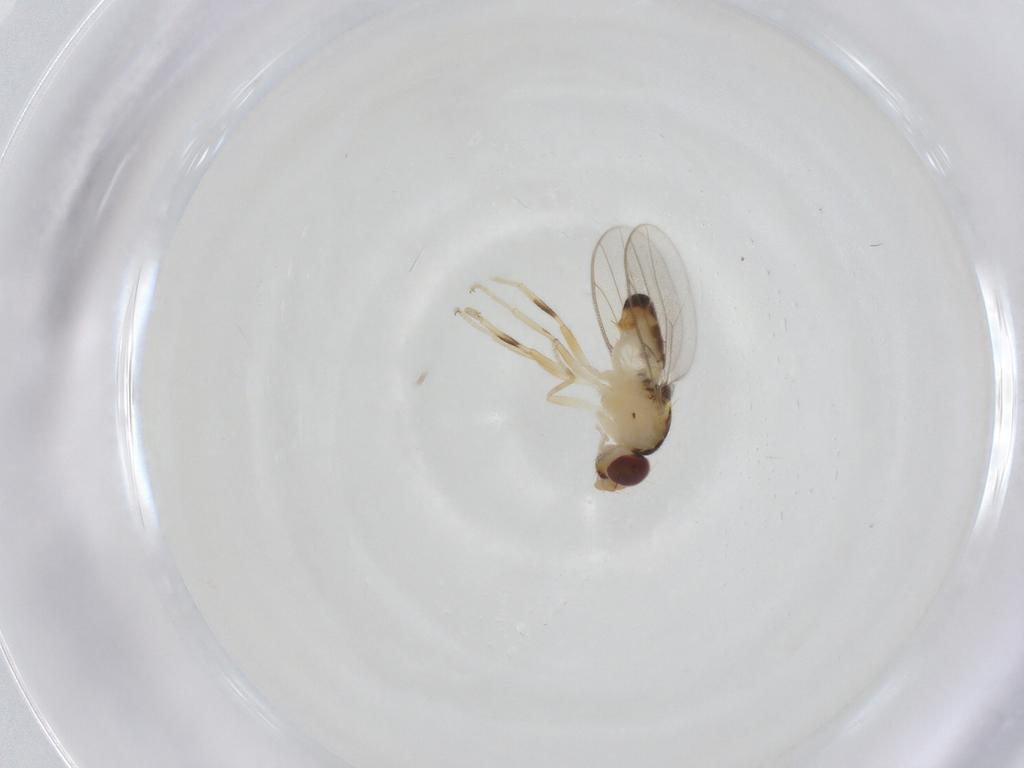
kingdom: Animalia
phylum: Arthropoda
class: Insecta
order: Diptera
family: Chloropidae
